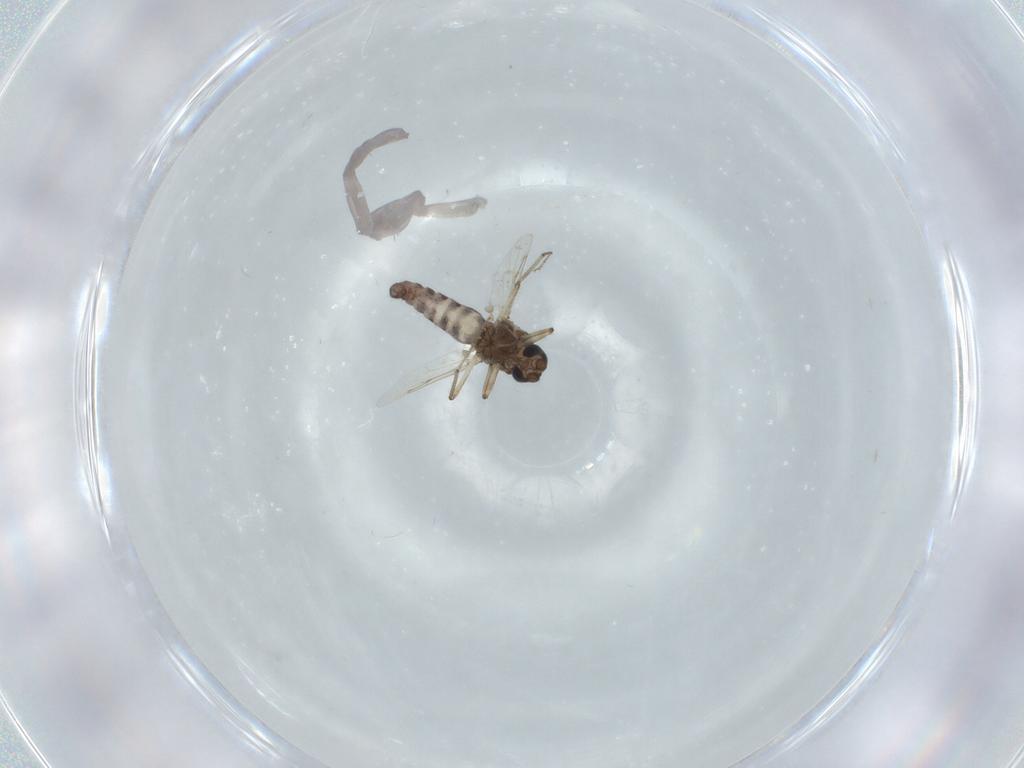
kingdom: Animalia
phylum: Arthropoda
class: Insecta
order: Diptera
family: Ceratopogonidae
